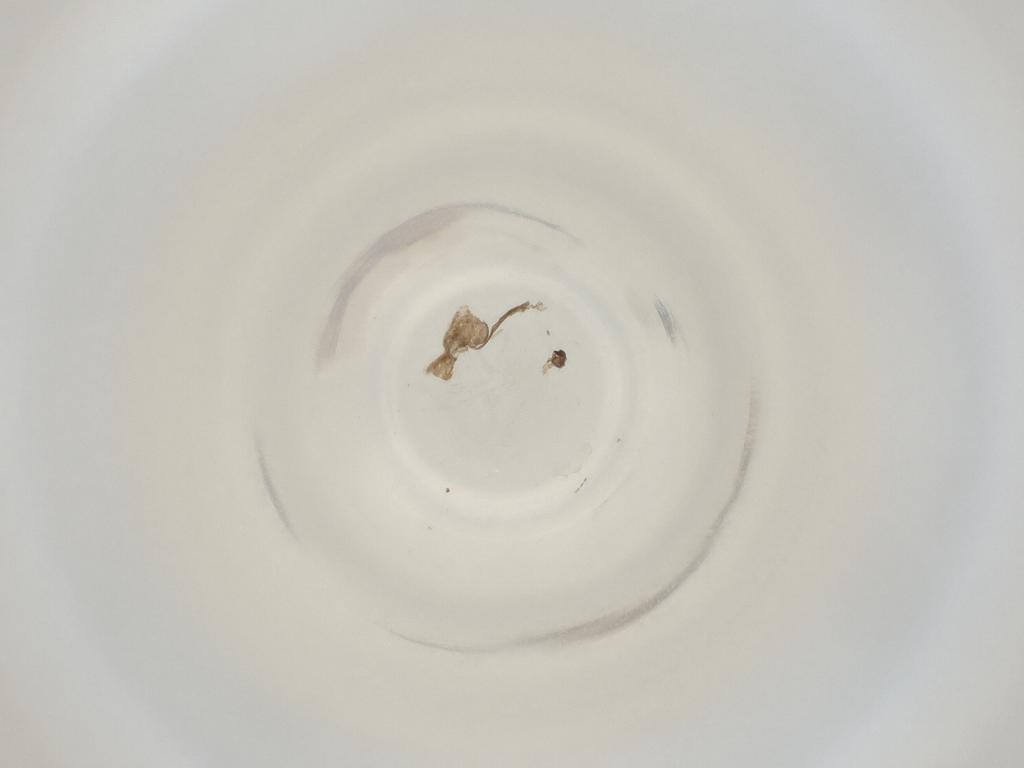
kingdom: Animalia
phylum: Arthropoda
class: Insecta
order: Diptera
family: Cecidomyiidae
